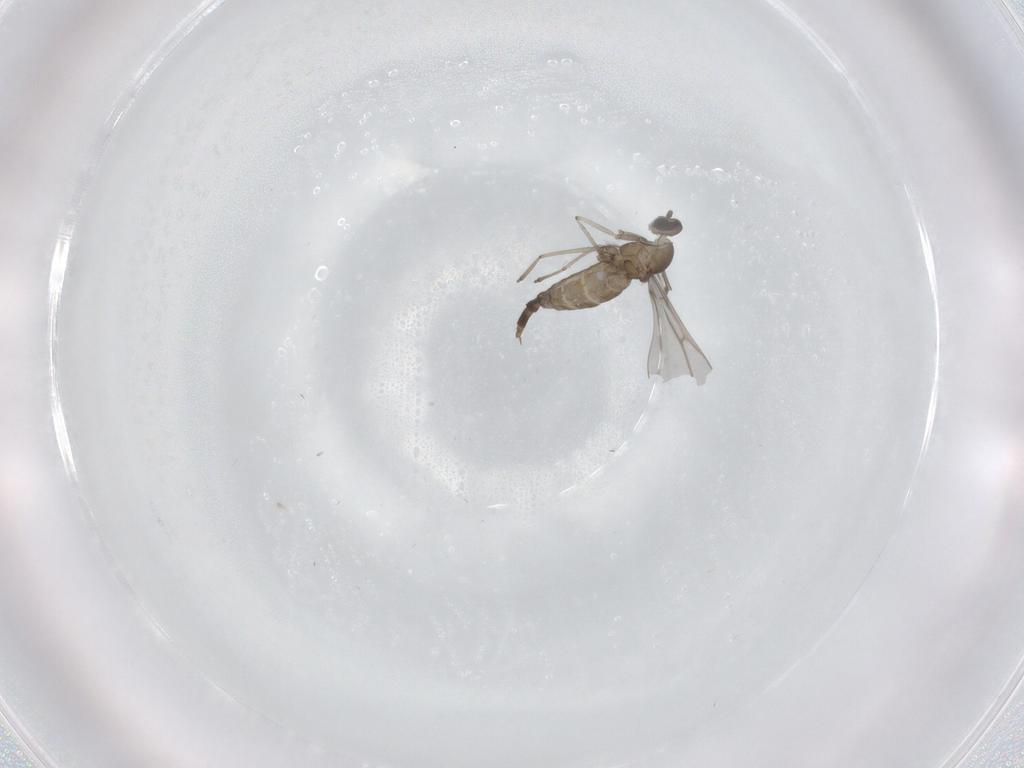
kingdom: Animalia
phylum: Arthropoda
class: Insecta
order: Diptera
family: Cecidomyiidae
